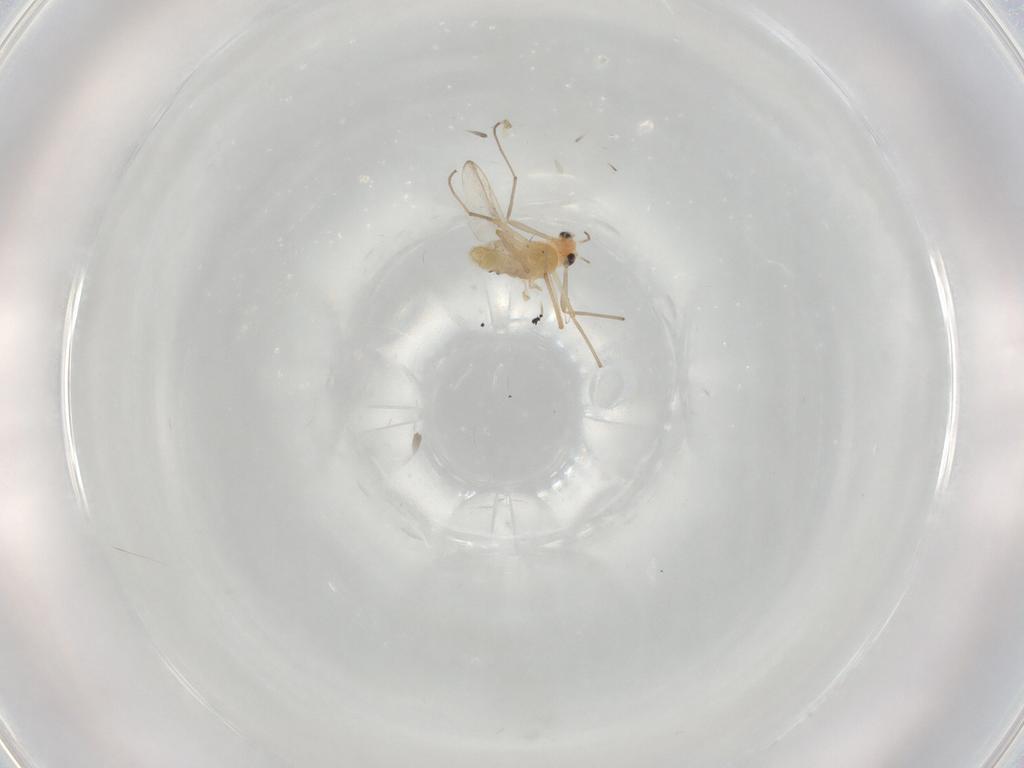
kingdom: Animalia
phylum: Arthropoda
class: Insecta
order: Diptera
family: Chironomidae
